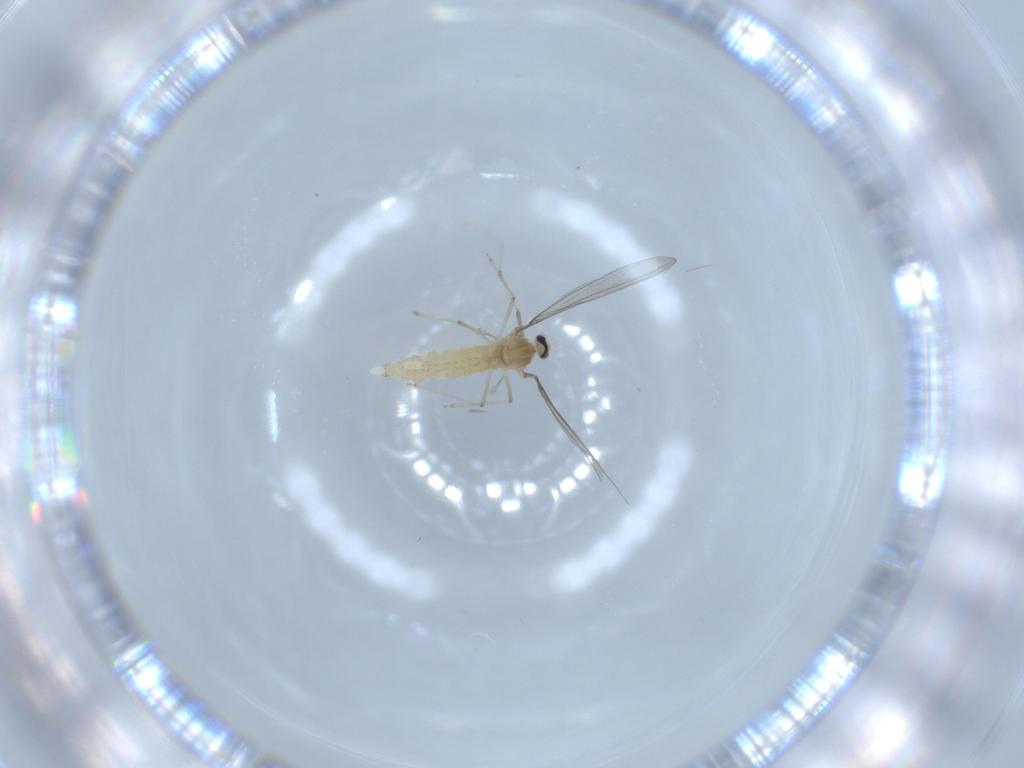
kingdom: Animalia
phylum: Arthropoda
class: Insecta
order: Diptera
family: Cecidomyiidae
